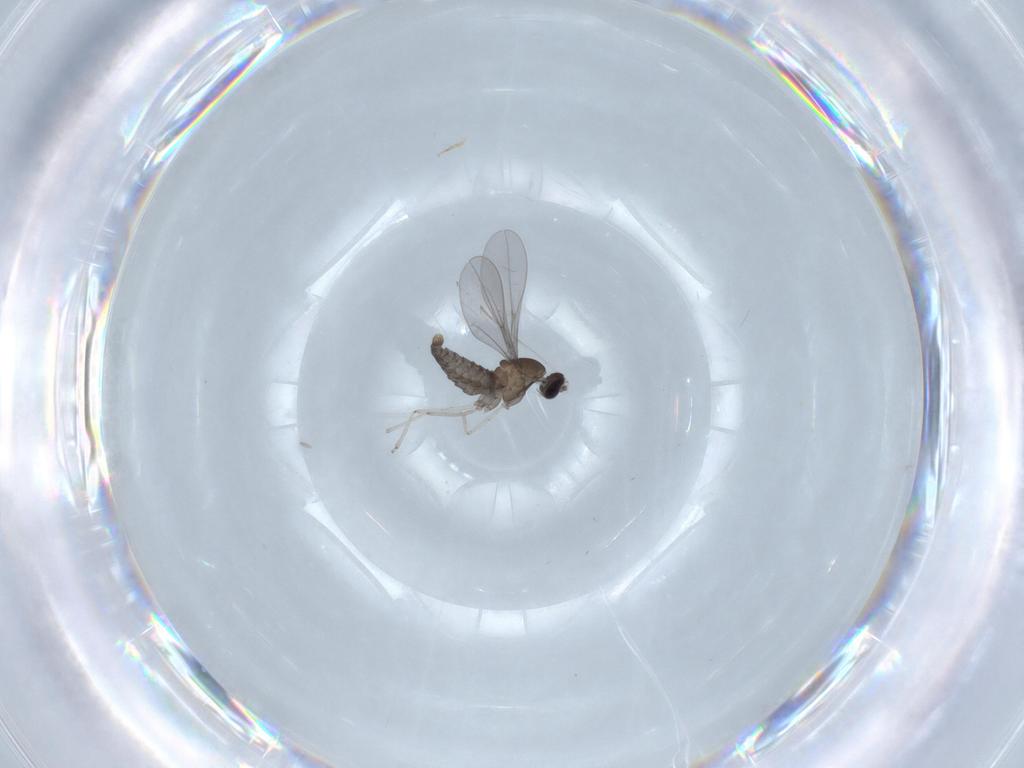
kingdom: Animalia
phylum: Arthropoda
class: Insecta
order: Diptera
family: Cecidomyiidae
